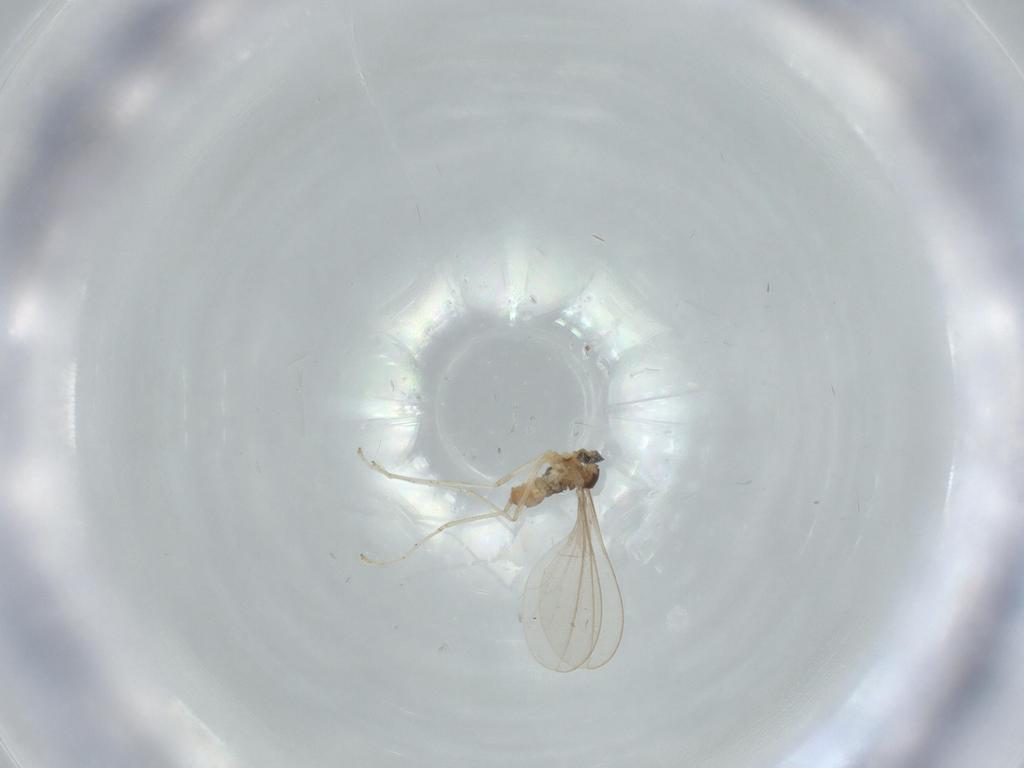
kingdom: Animalia
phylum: Arthropoda
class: Insecta
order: Diptera
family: Cecidomyiidae
